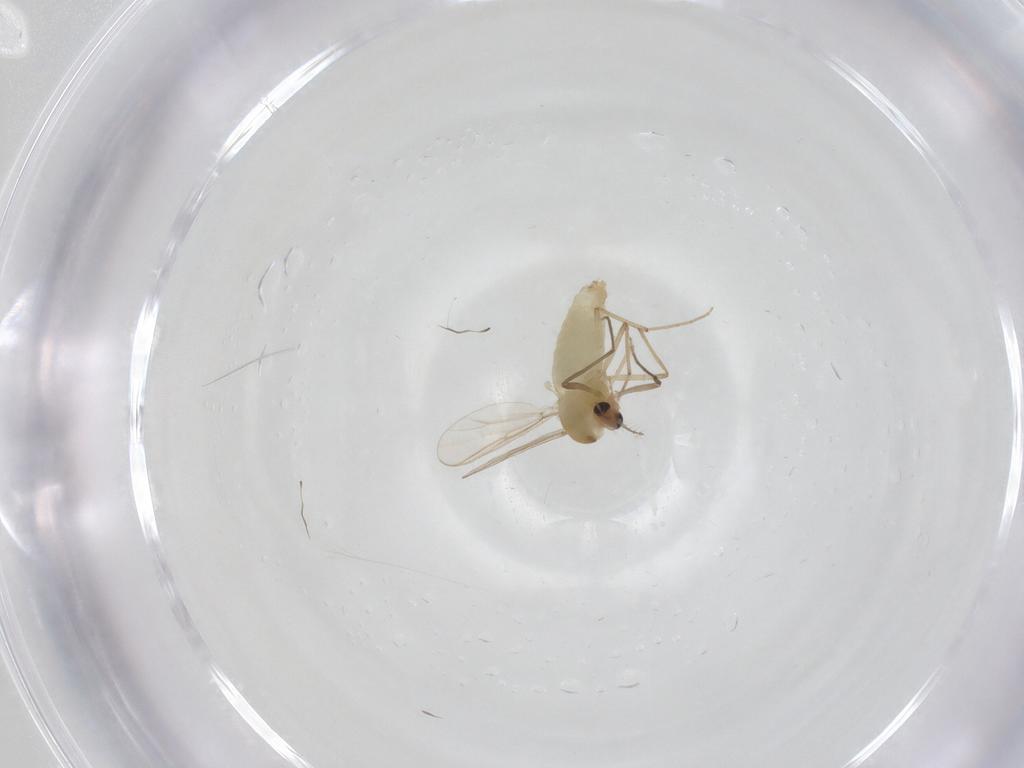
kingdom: Animalia
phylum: Arthropoda
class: Insecta
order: Diptera
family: Chironomidae
